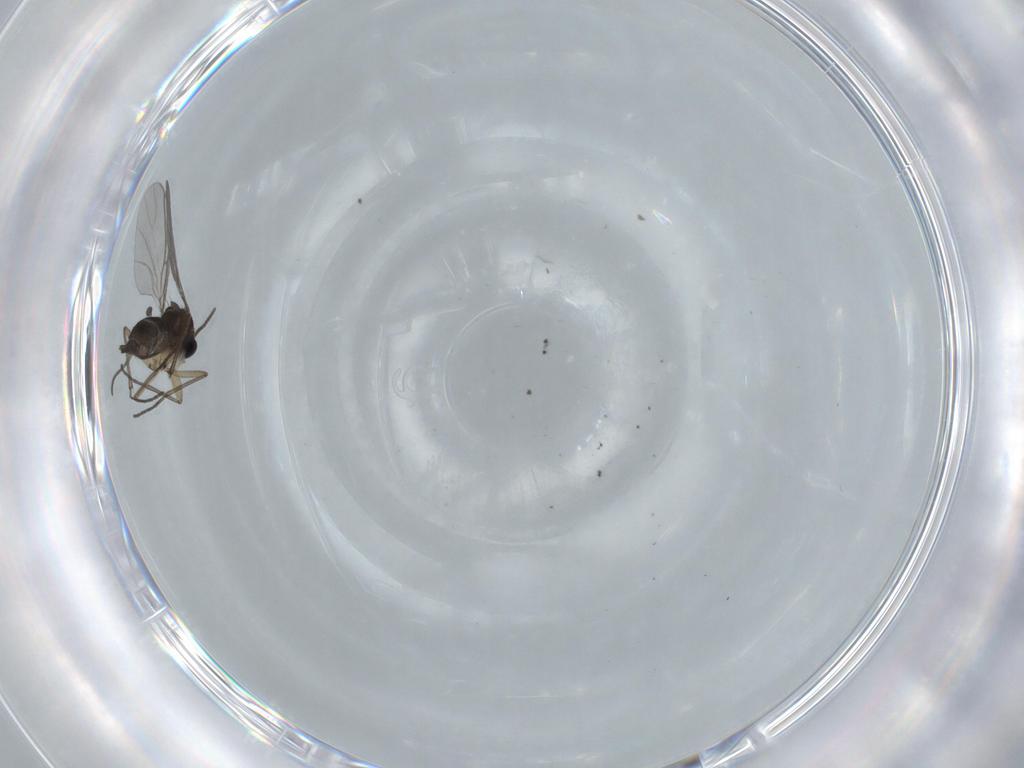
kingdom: Animalia
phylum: Arthropoda
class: Insecta
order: Diptera
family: Sciaridae
